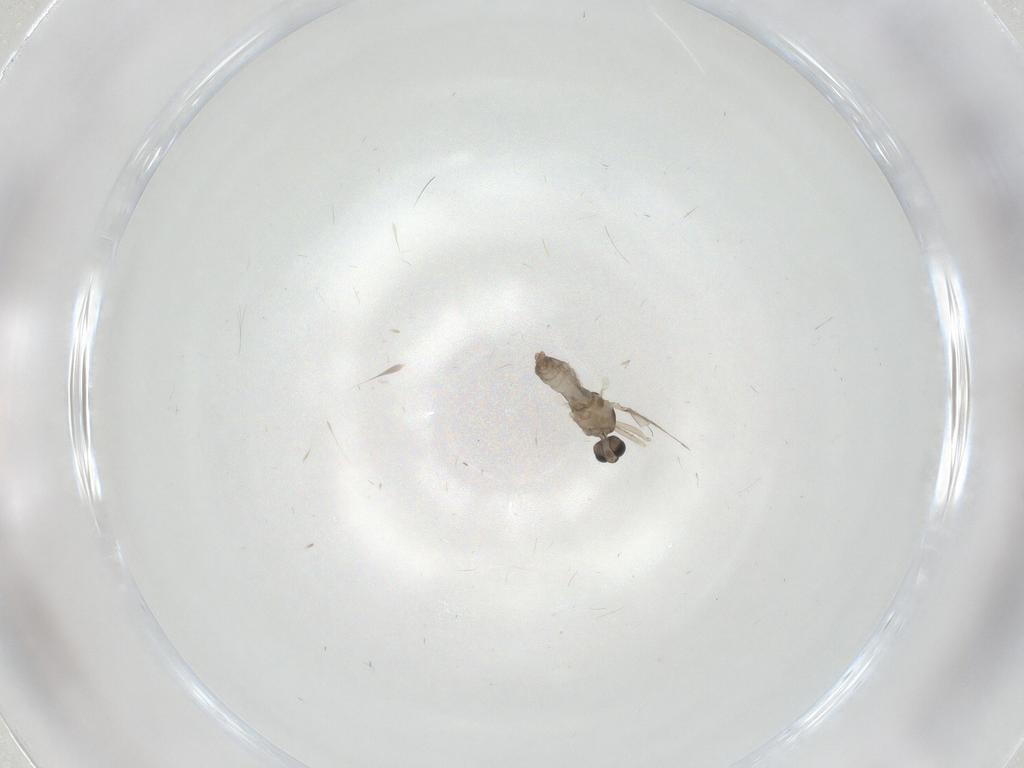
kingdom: Animalia
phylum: Arthropoda
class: Insecta
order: Diptera
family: Cecidomyiidae
